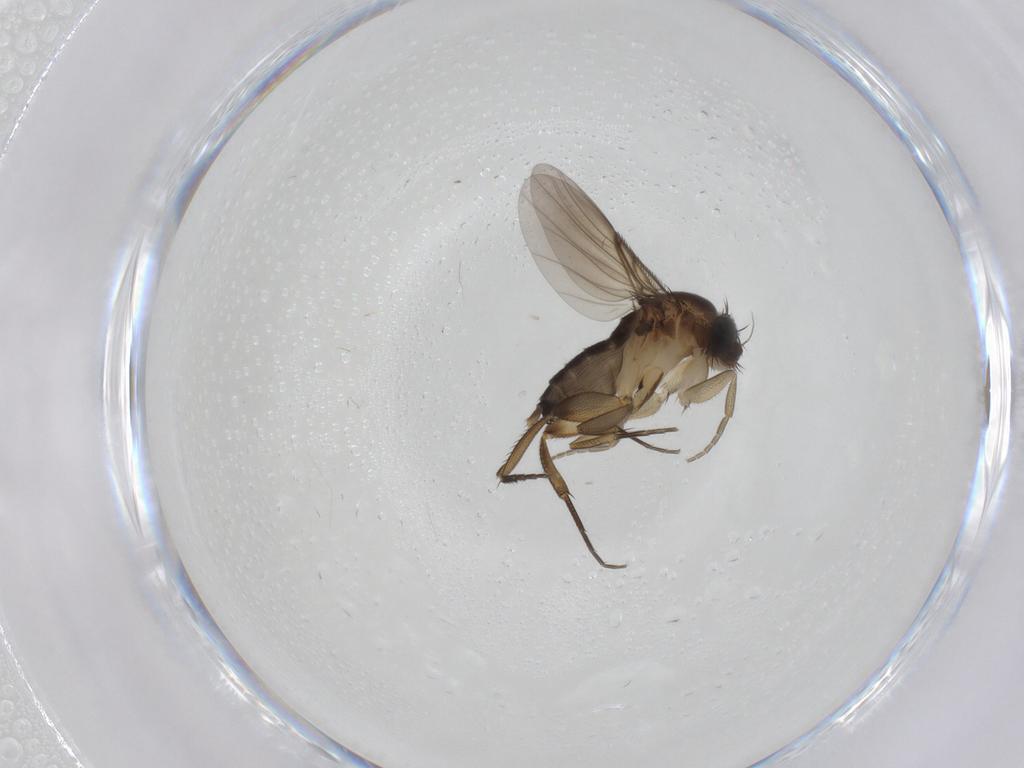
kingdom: Animalia
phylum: Arthropoda
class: Insecta
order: Diptera
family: Phoridae
